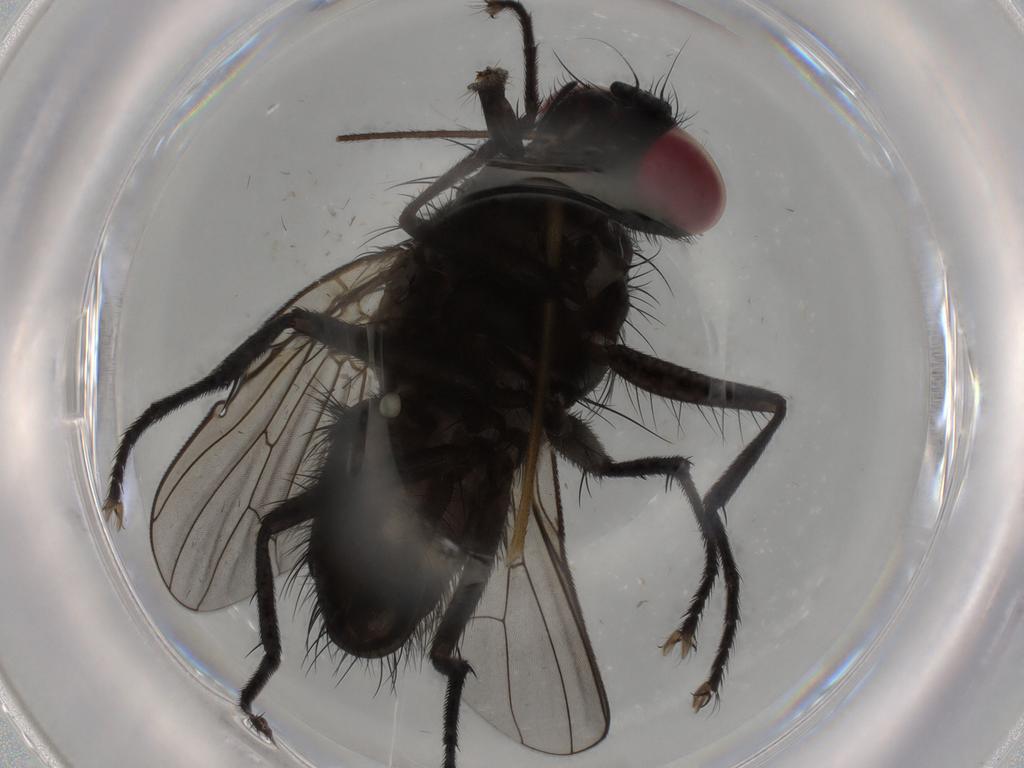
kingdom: Animalia
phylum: Arthropoda
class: Insecta
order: Diptera
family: Muscidae
